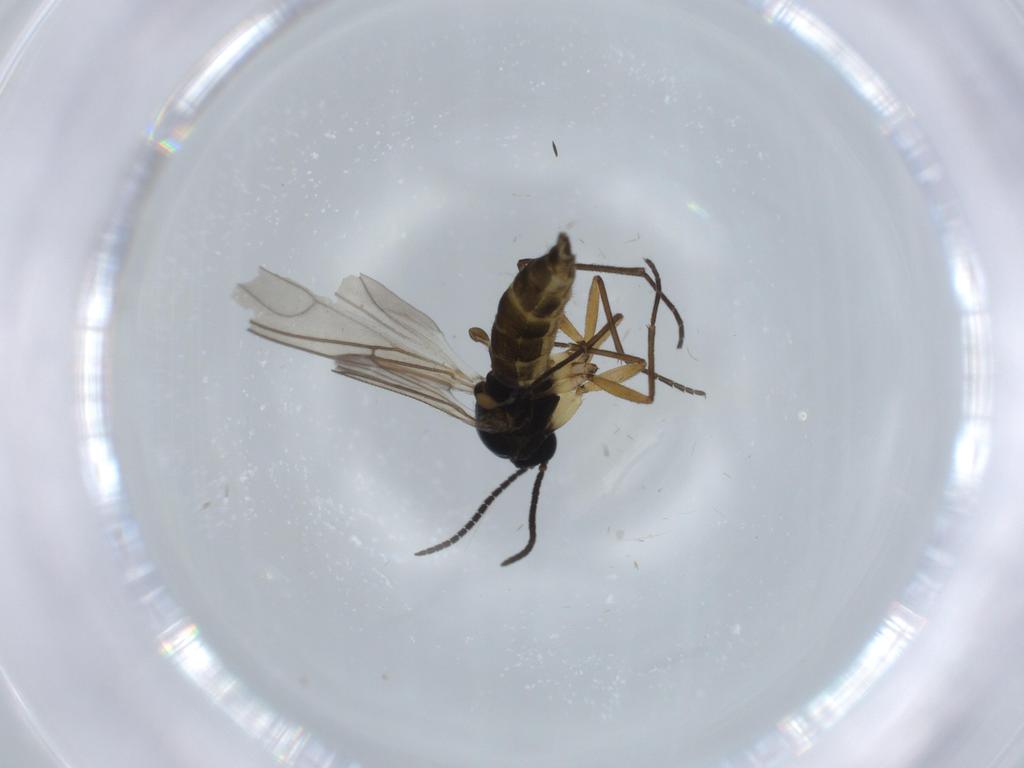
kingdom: Animalia
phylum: Arthropoda
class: Insecta
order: Diptera
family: Sciaridae
